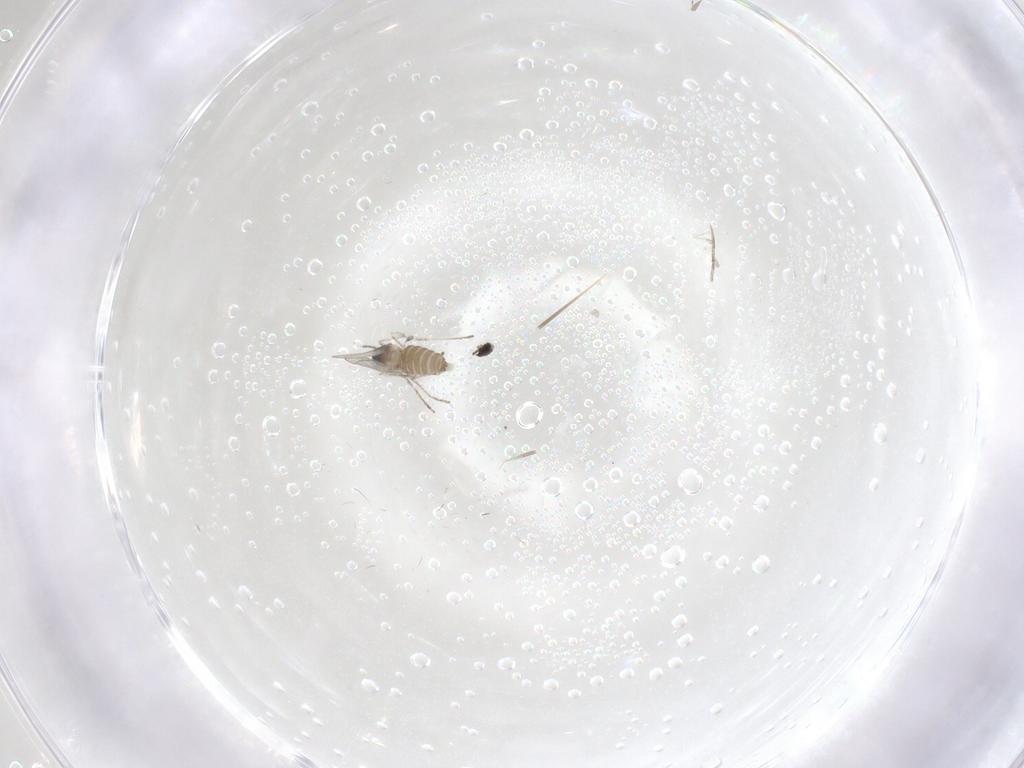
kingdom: Animalia
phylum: Arthropoda
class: Insecta
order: Diptera
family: Cecidomyiidae
